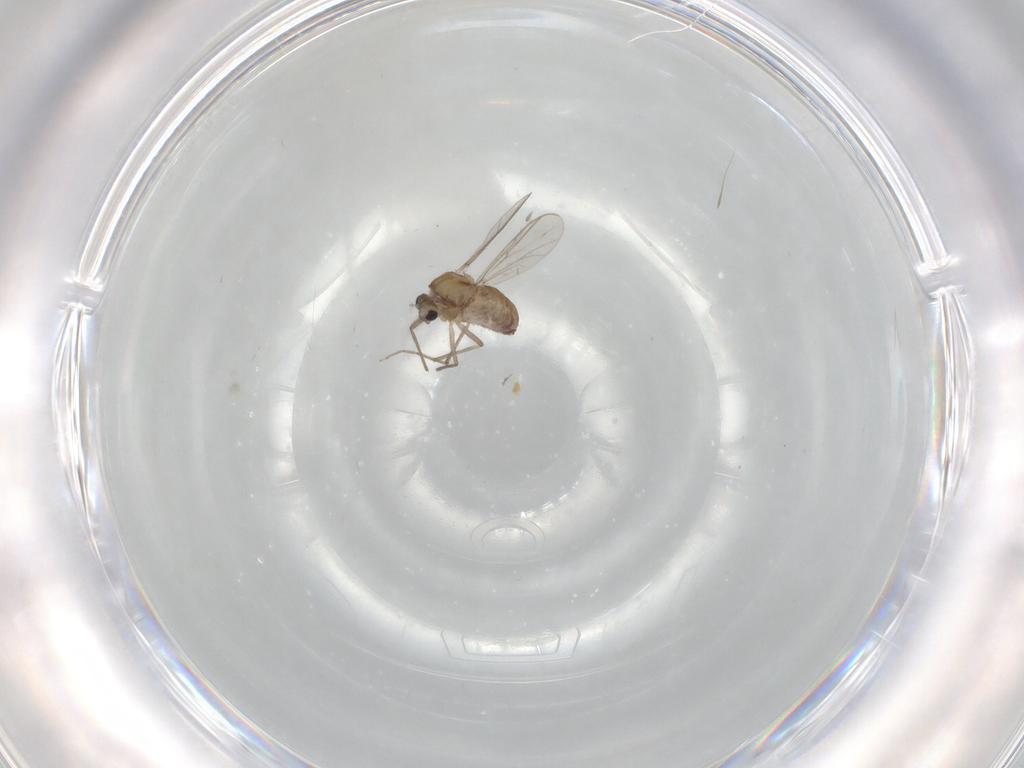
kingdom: Animalia
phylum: Arthropoda
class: Insecta
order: Diptera
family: Chironomidae
